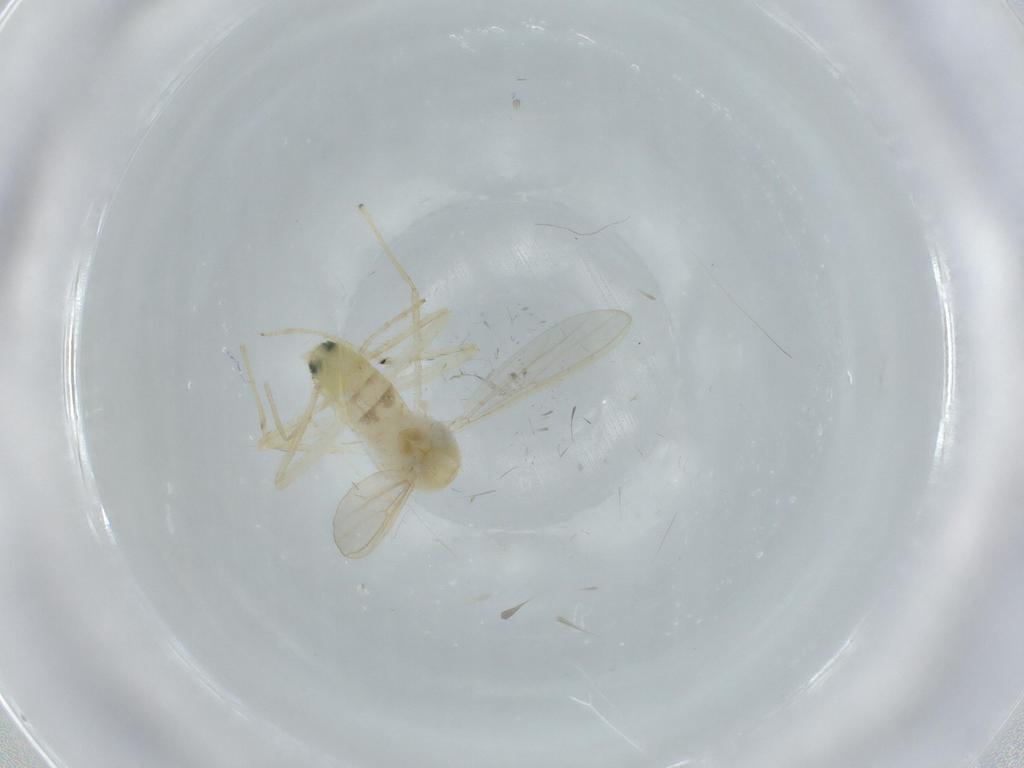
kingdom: Animalia
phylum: Arthropoda
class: Insecta
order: Diptera
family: Chironomidae
